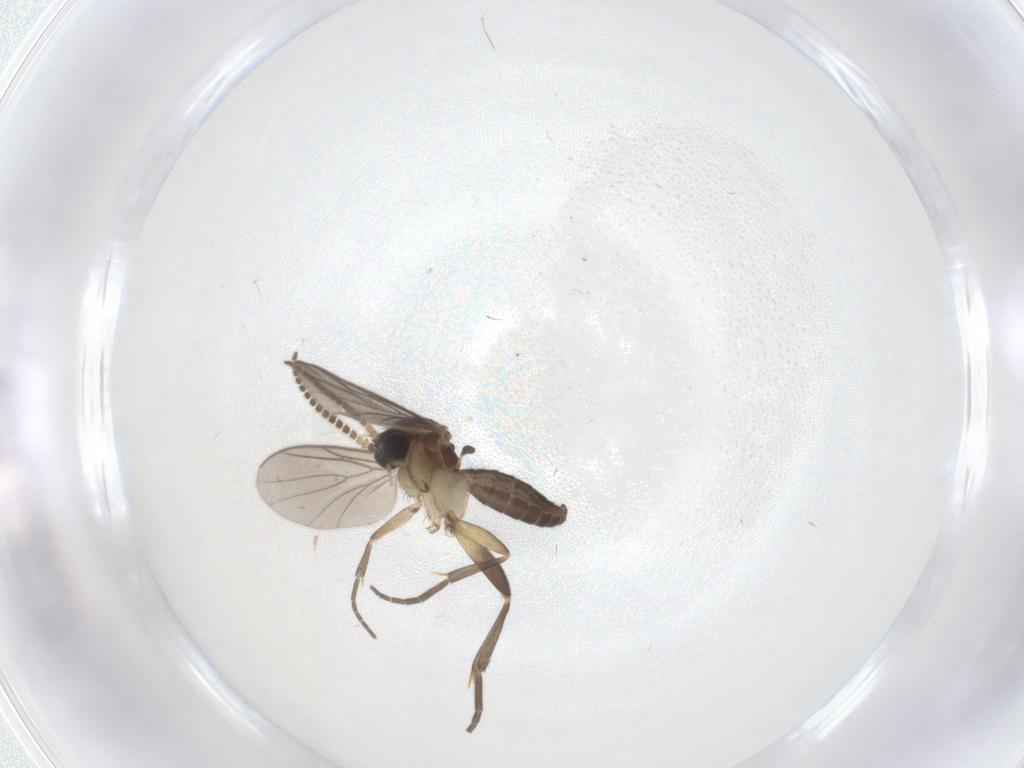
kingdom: Animalia
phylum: Arthropoda
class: Insecta
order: Diptera
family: Mycetophilidae
